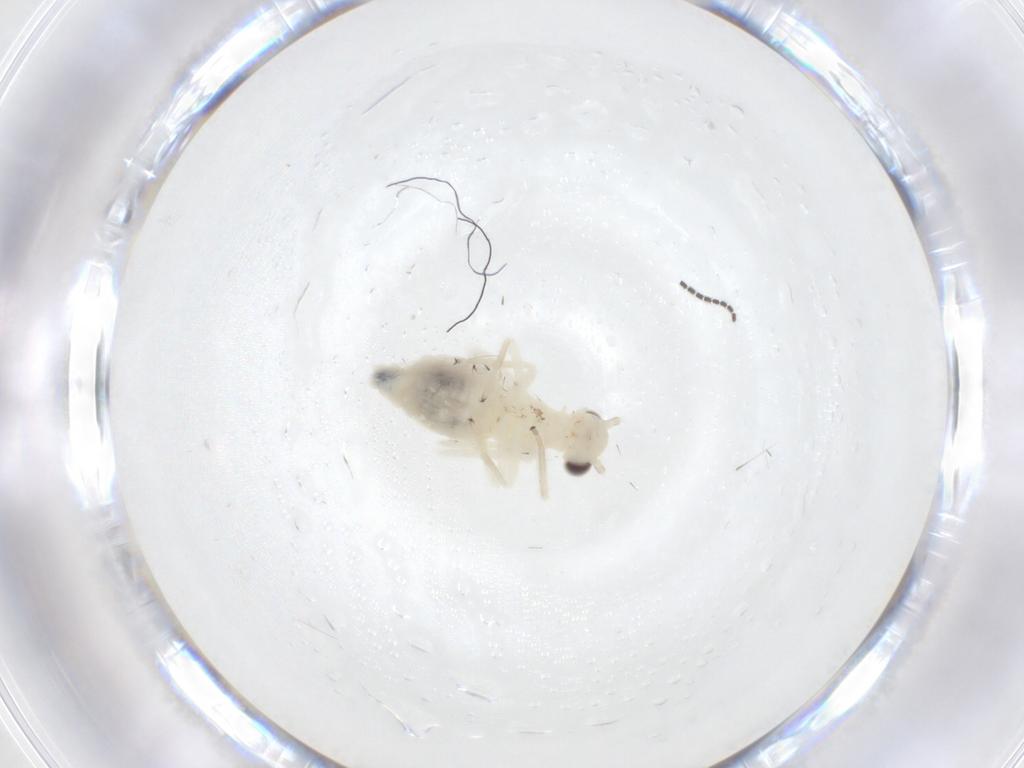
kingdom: Animalia
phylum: Arthropoda
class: Insecta
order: Psocodea
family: Caeciliusidae
